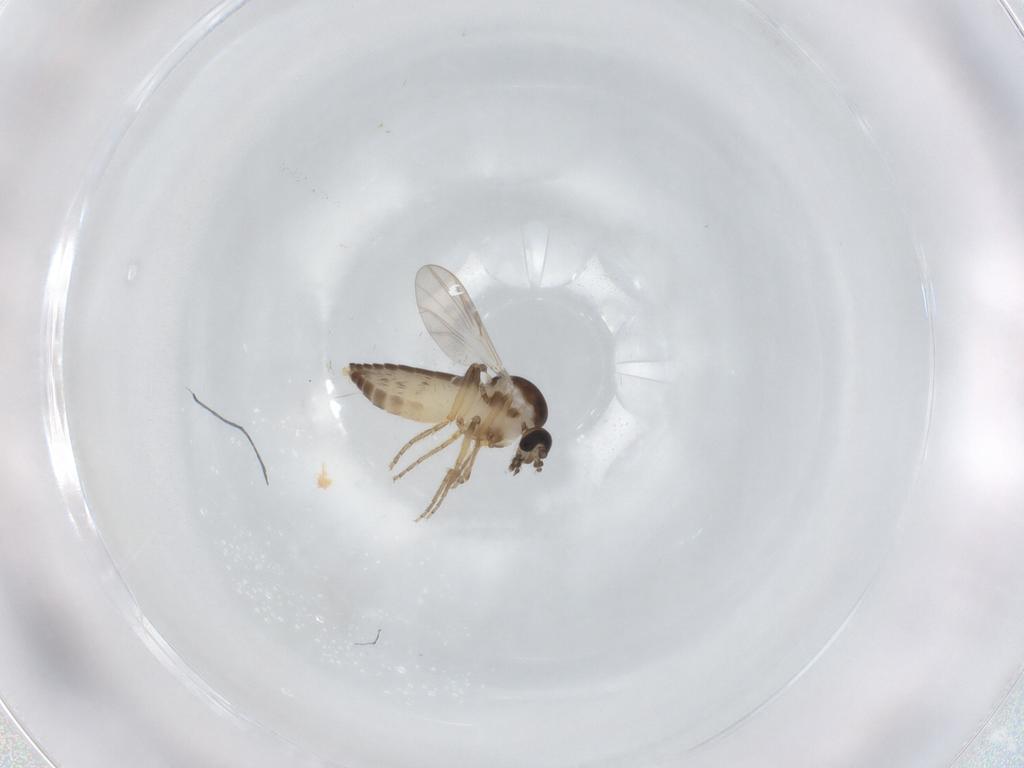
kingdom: Animalia
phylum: Arthropoda
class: Insecta
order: Diptera
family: Ceratopogonidae
